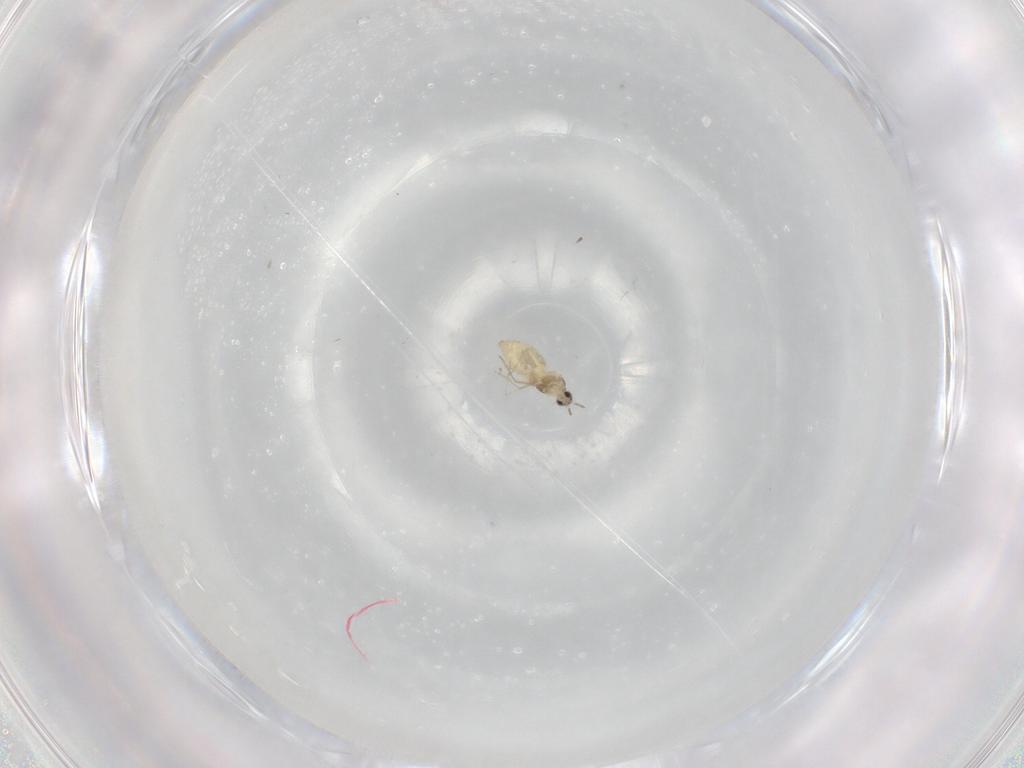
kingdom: Animalia
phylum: Arthropoda
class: Insecta
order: Diptera
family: Cecidomyiidae
